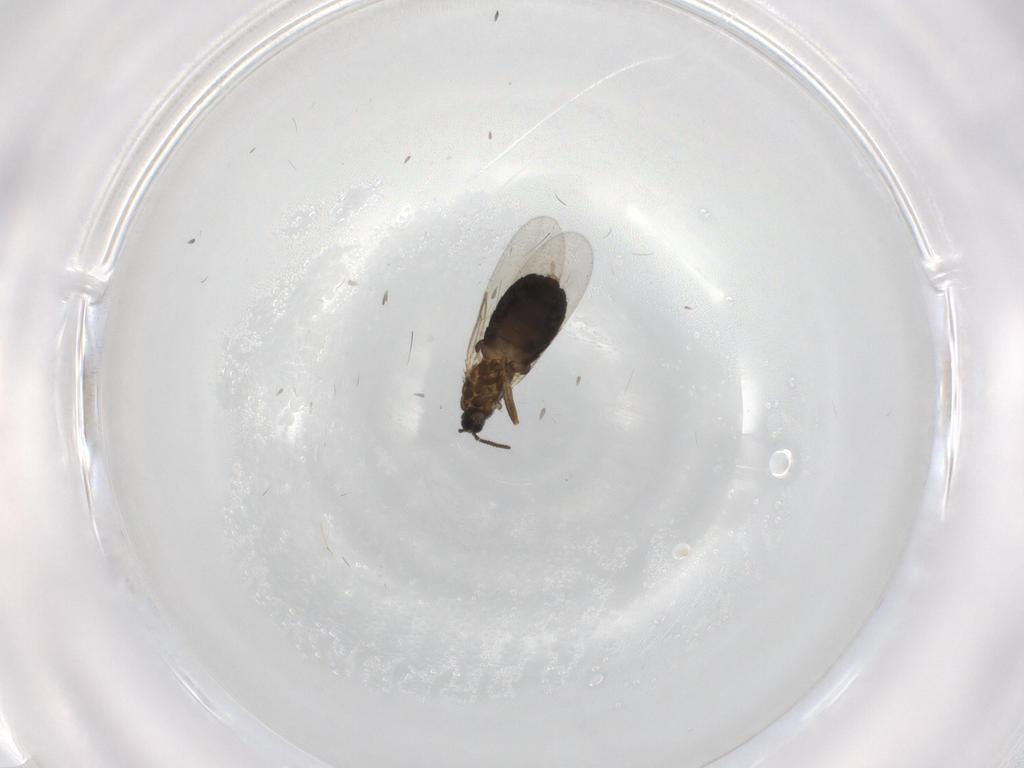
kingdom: Animalia
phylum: Arthropoda
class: Insecta
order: Diptera
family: Scatopsidae
